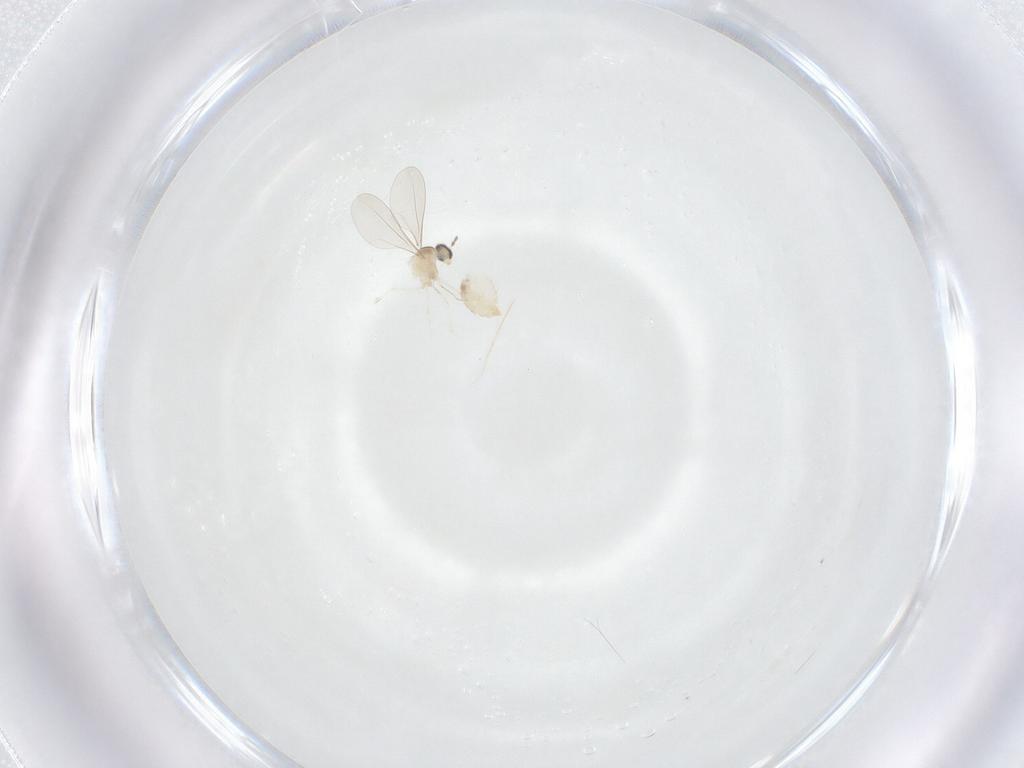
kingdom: Animalia
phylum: Arthropoda
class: Insecta
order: Diptera
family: Cecidomyiidae
